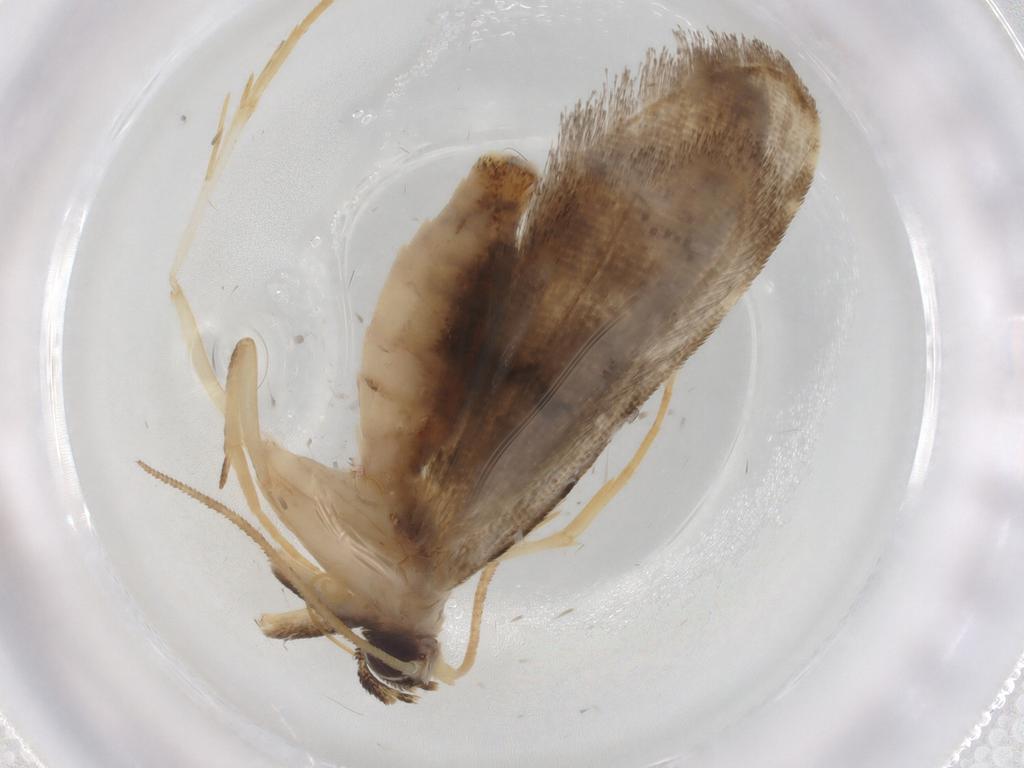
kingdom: Animalia
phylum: Arthropoda
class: Insecta
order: Lepidoptera
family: Noctuidae
